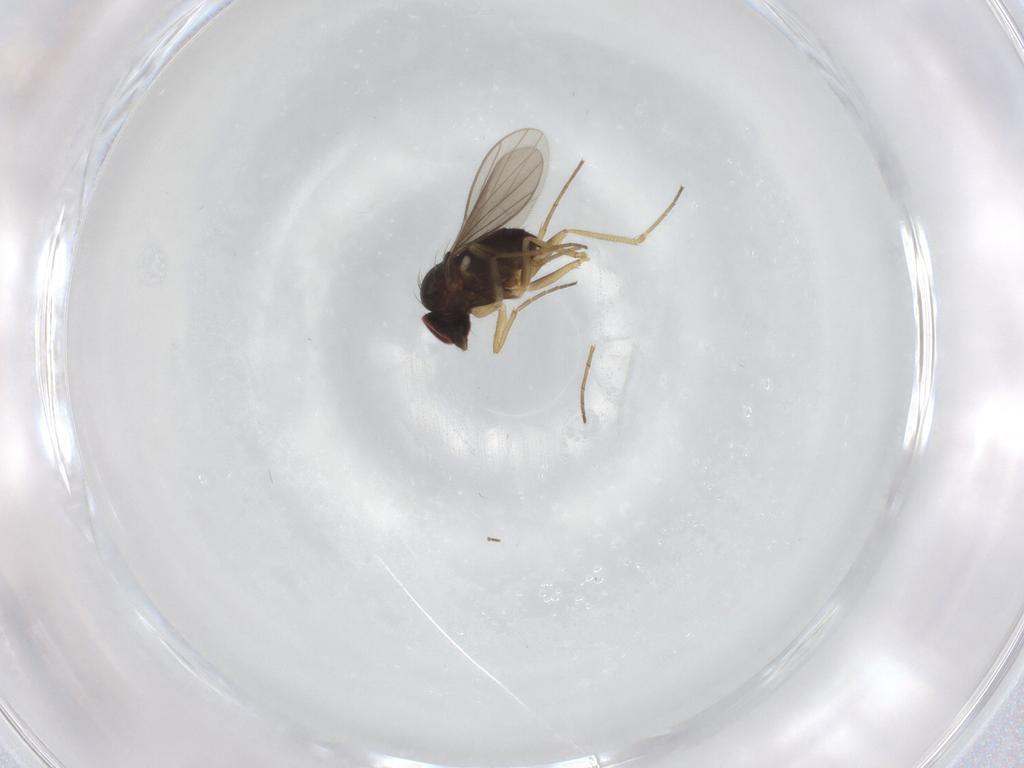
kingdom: Animalia
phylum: Arthropoda
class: Insecta
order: Diptera
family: Dolichopodidae
